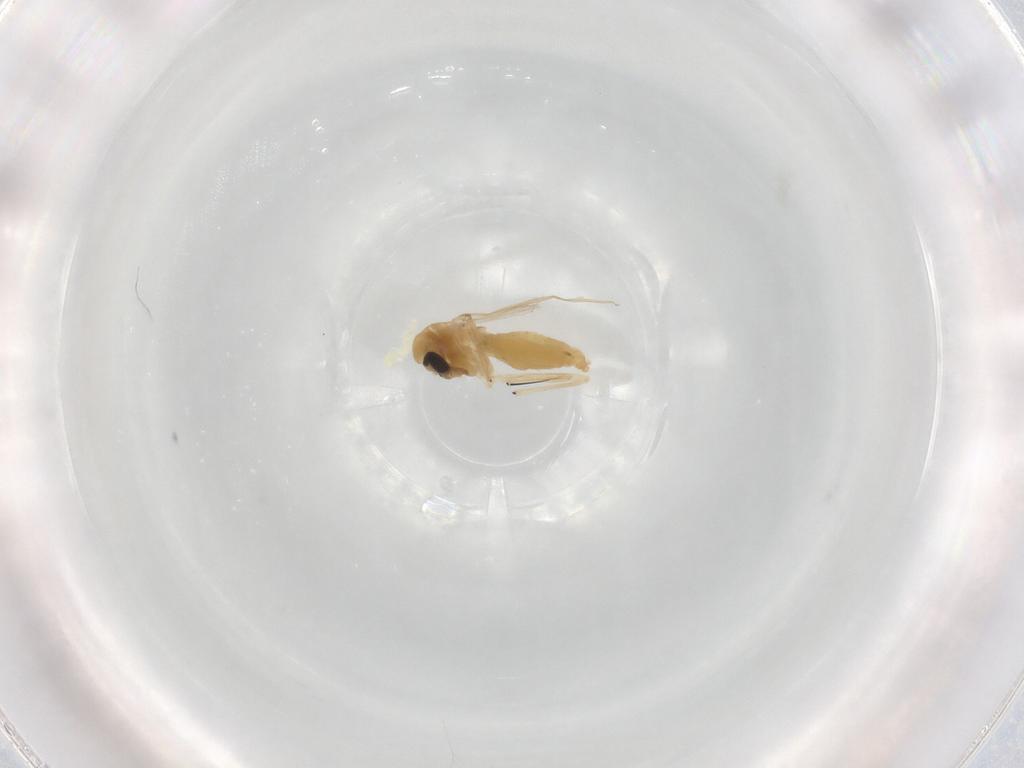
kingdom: Animalia
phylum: Arthropoda
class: Insecta
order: Diptera
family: Chironomidae
